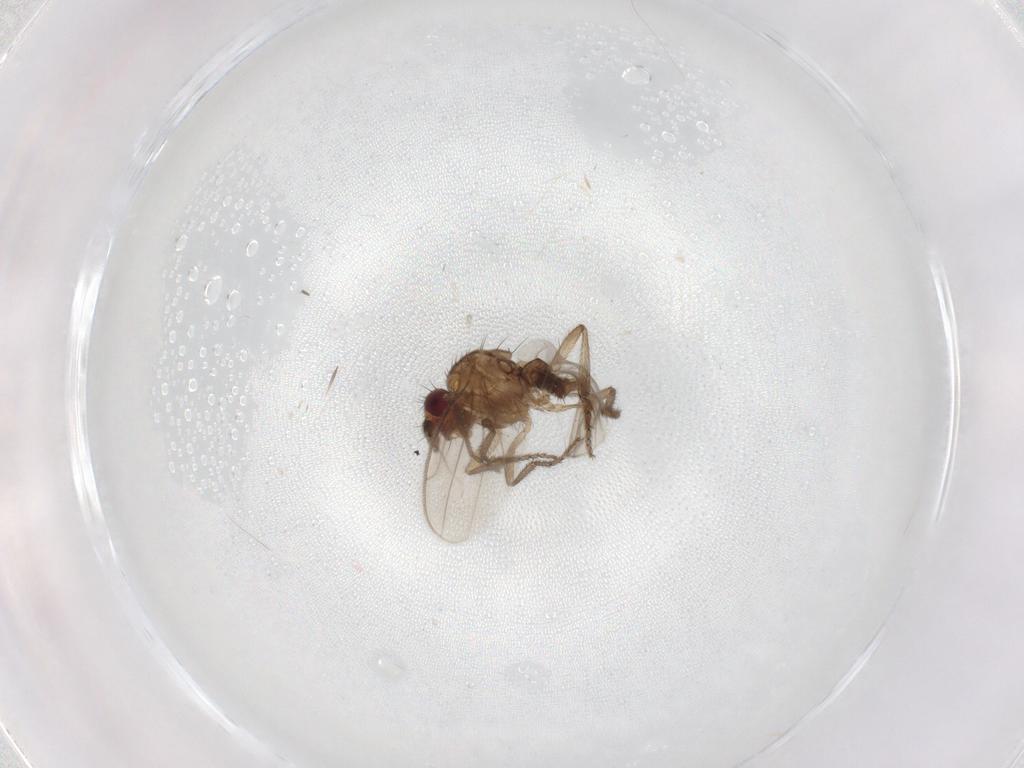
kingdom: Animalia
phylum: Arthropoda
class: Insecta
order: Diptera
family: Sphaeroceridae
